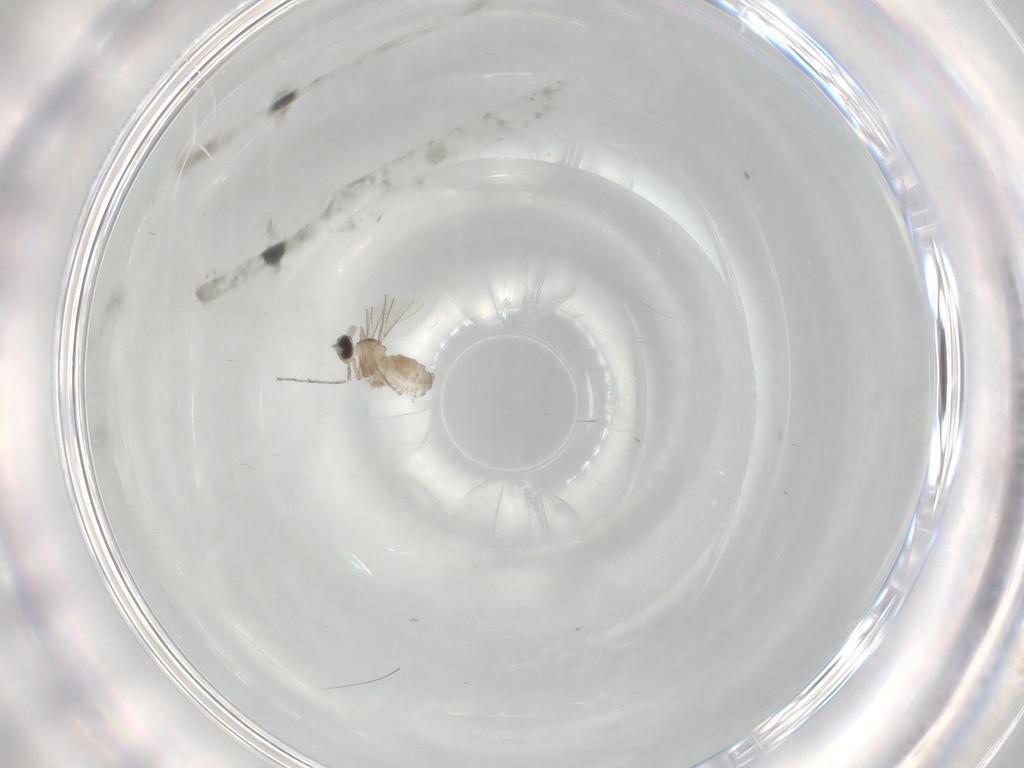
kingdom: Animalia
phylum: Arthropoda
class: Insecta
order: Diptera
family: Cecidomyiidae
